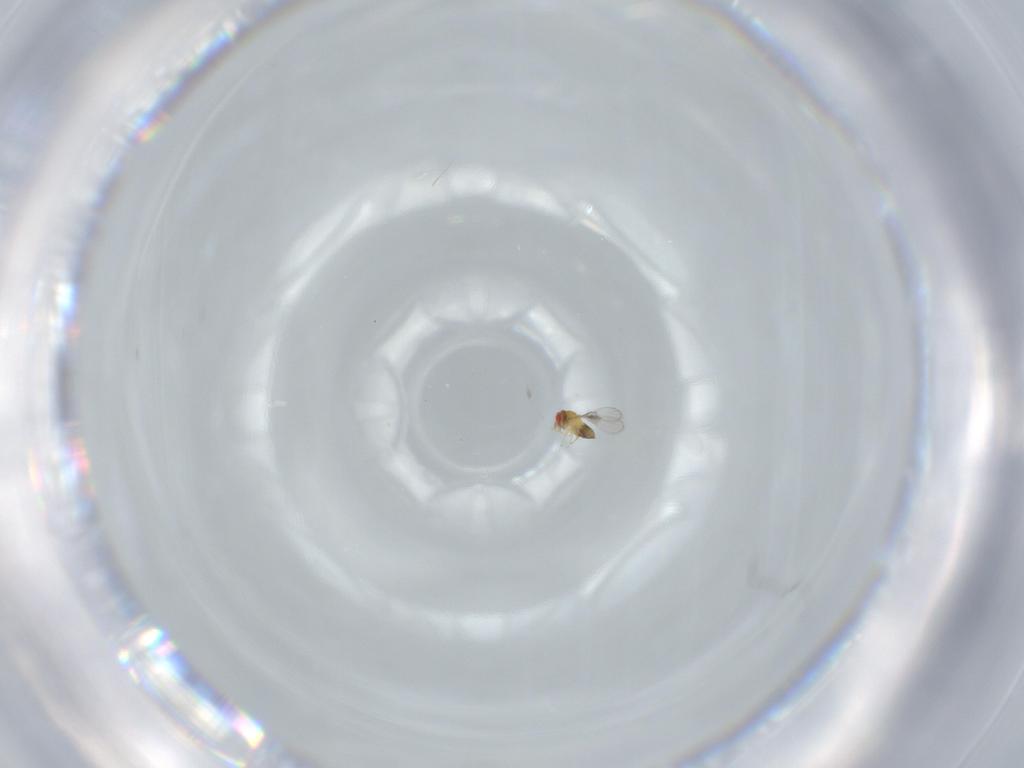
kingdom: Animalia
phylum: Arthropoda
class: Insecta
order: Hymenoptera
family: Trichogrammatidae
